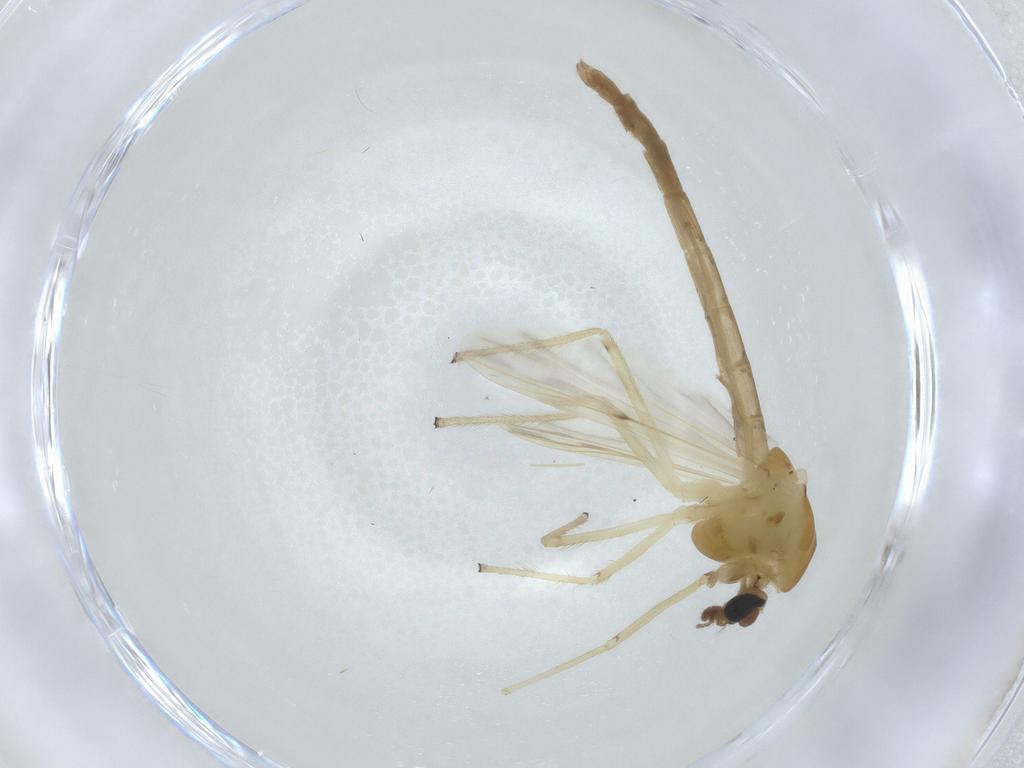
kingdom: Animalia
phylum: Arthropoda
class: Insecta
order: Diptera
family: Chironomidae
